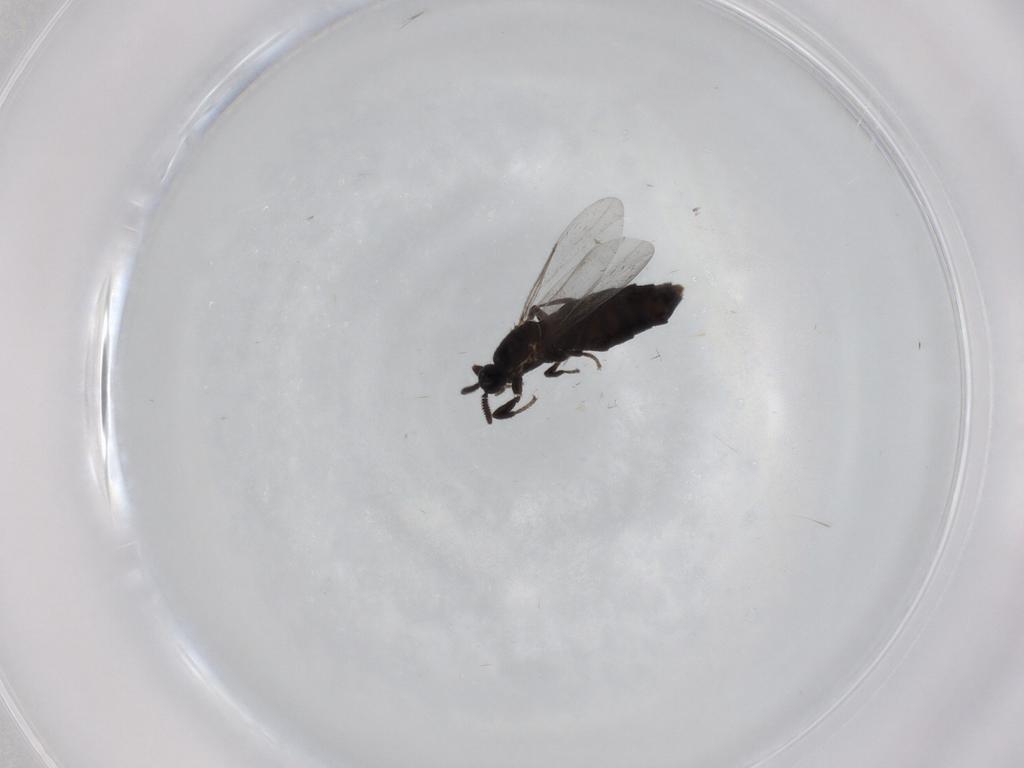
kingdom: Animalia
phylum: Arthropoda
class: Insecta
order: Diptera
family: Scatopsidae
